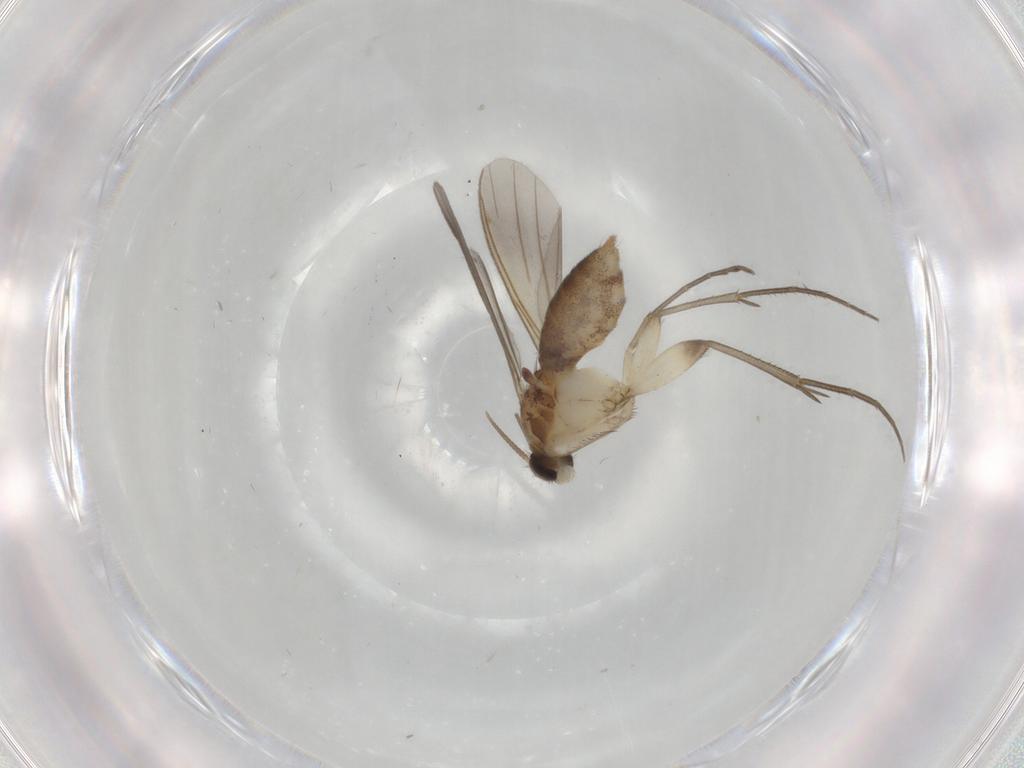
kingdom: Animalia
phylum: Arthropoda
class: Insecta
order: Diptera
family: Mycetophilidae
